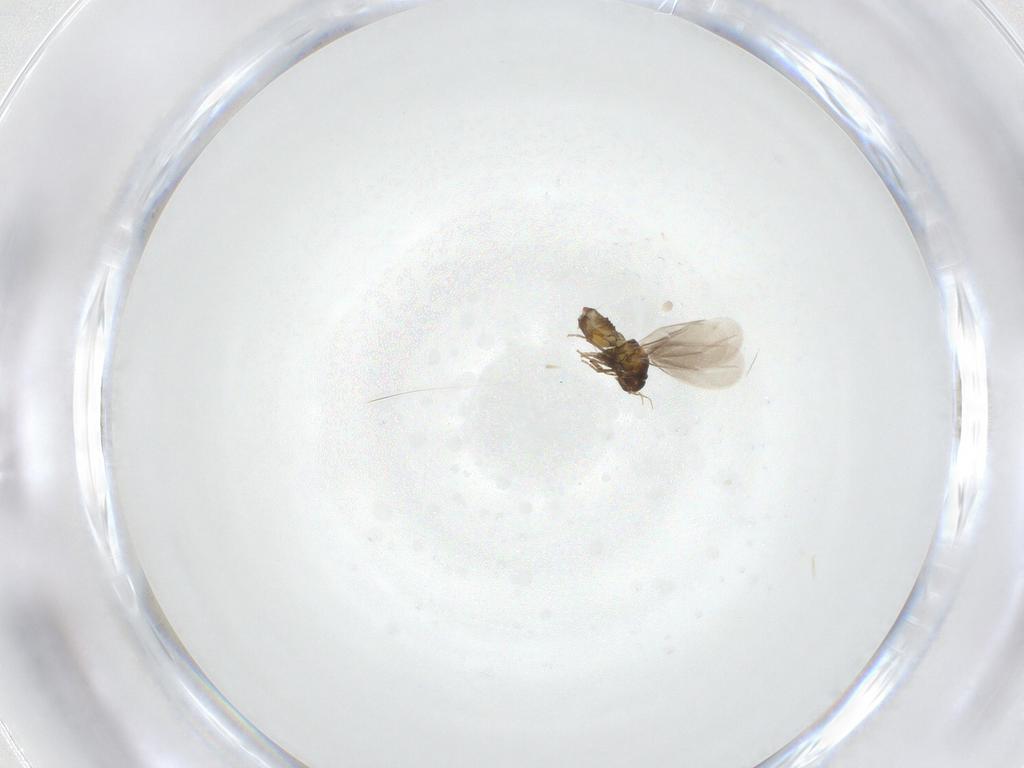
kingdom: Animalia
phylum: Arthropoda
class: Insecta
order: Hemiptera
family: Aleyrodidae
